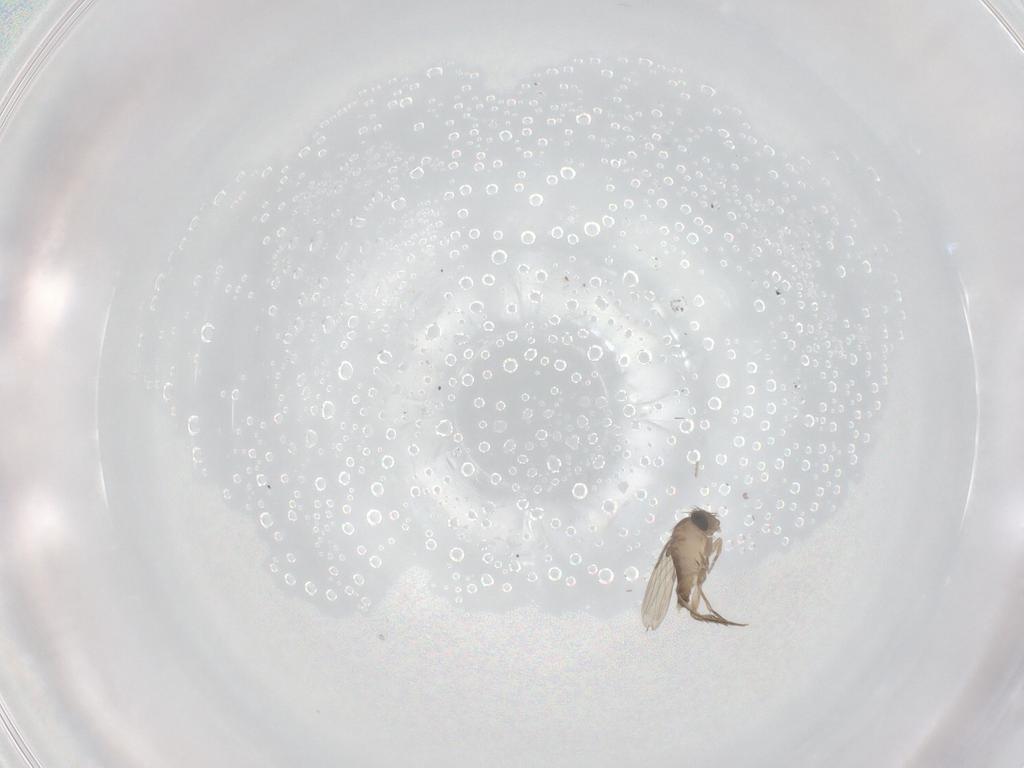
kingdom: Animalia
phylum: Arthropoda
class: Insecta
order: Diptera
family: Phoridae
